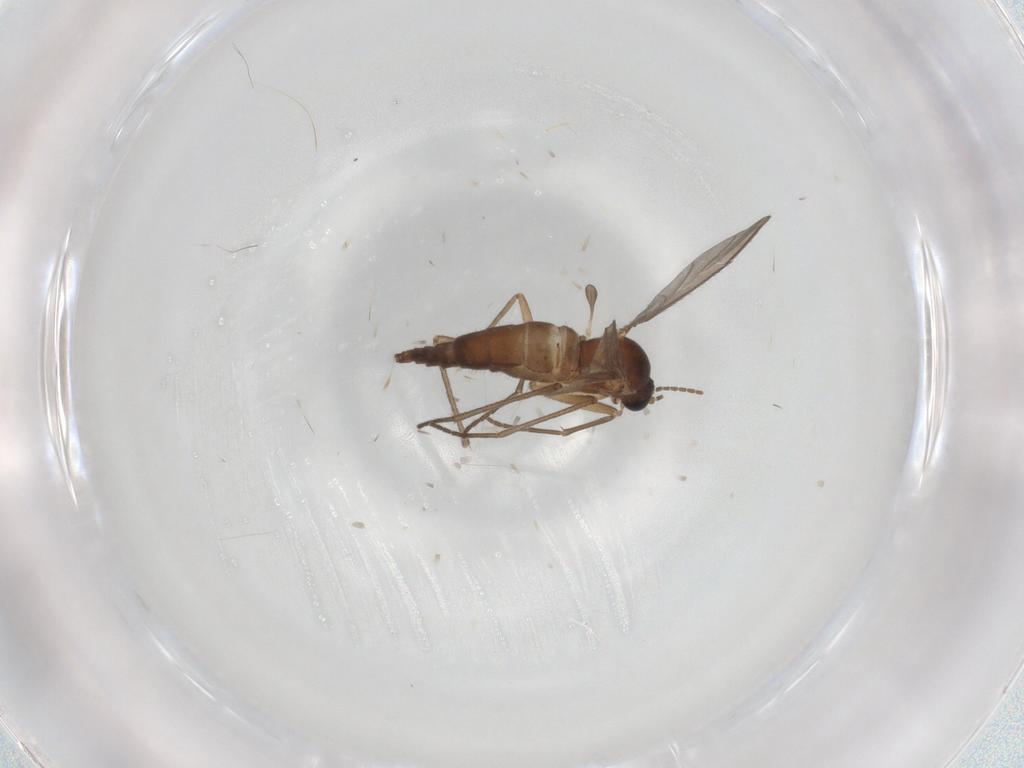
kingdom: Animalia
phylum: Arthropoda
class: Insecta
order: Diptera
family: Sciaridae
